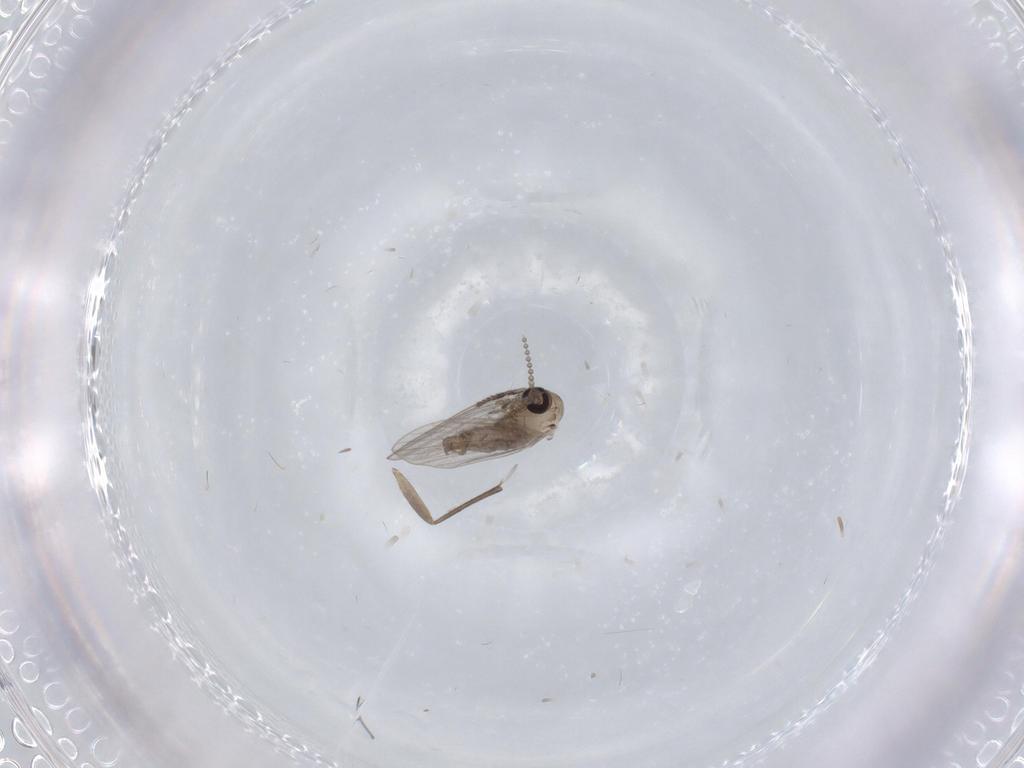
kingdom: Animalia
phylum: Arthropoda
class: Insecta
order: Diptera
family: Psychodidae
